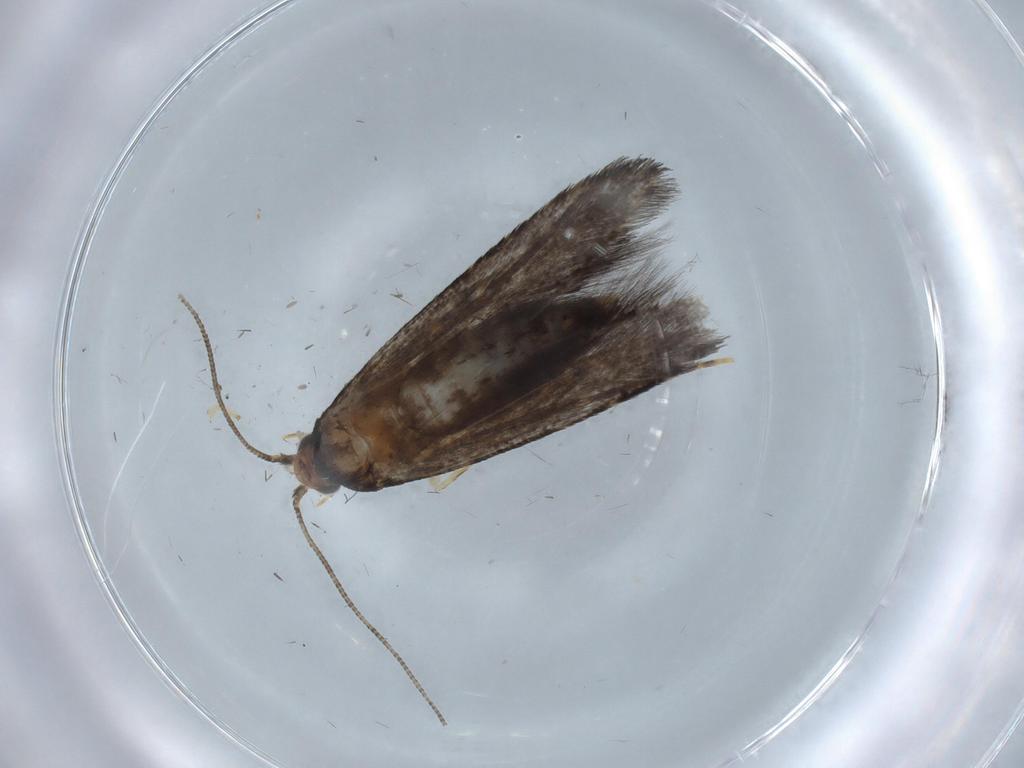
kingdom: Animalia
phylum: Arthropoda
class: Insecta
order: Lepidoptera
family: Tineidae
